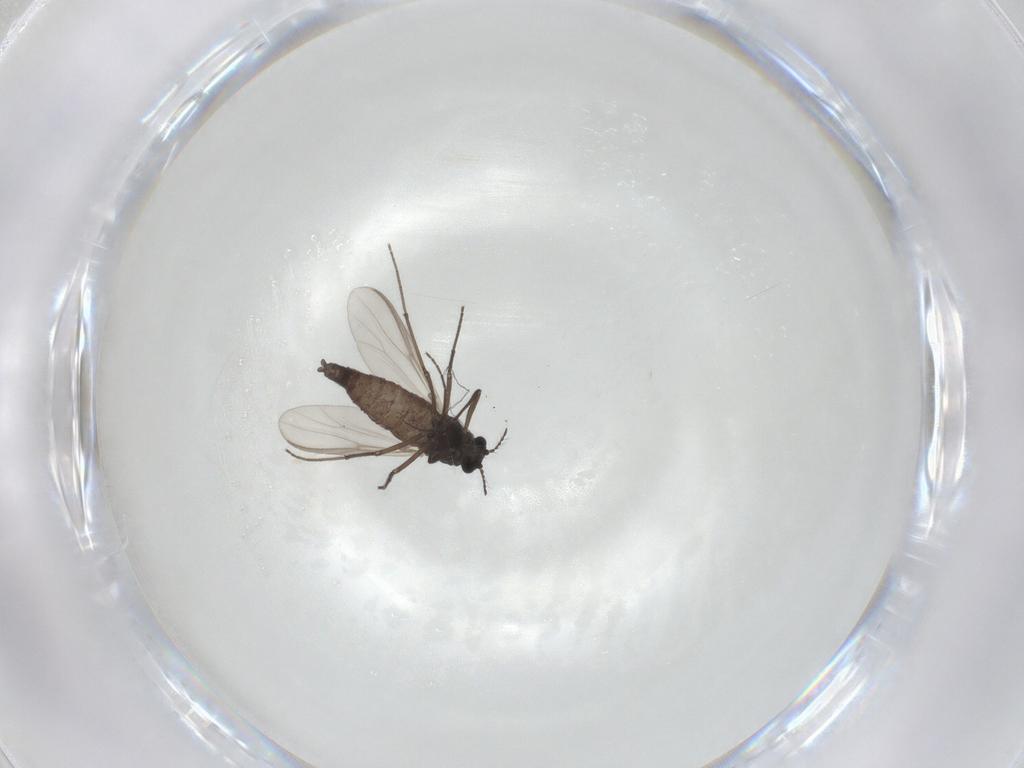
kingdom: Animalia
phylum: Arthropoda
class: Insecta
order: Diptera
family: Chironomidae
